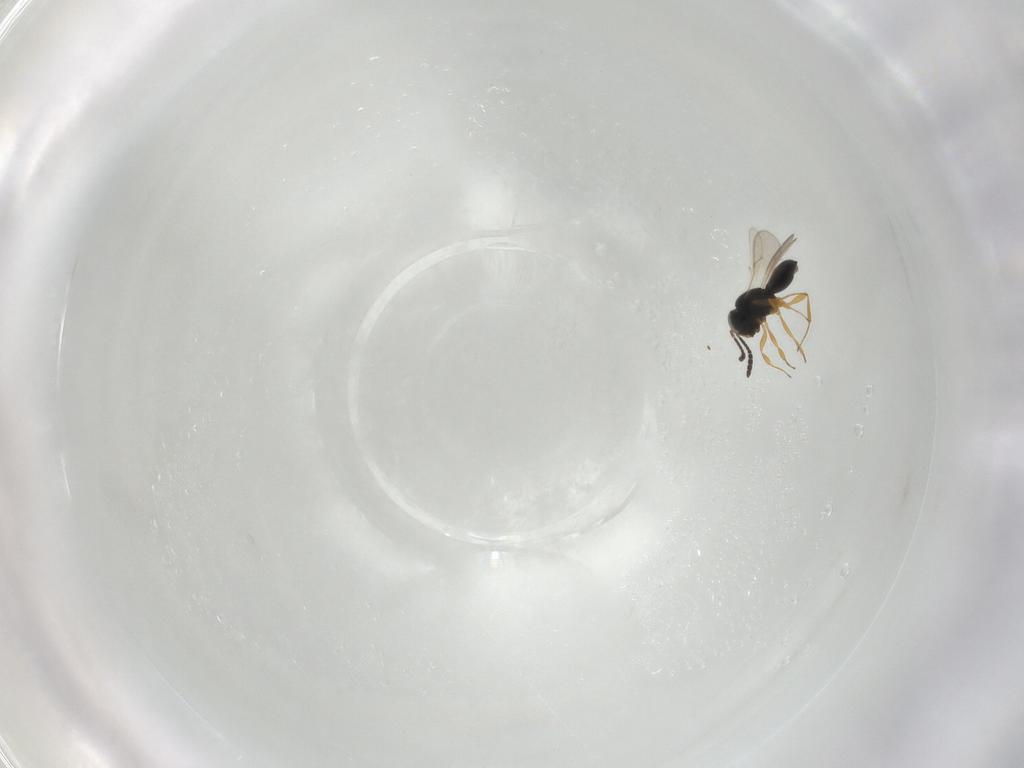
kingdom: Animalia
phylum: Arthropoda
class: Insecta
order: Hymenoptera
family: Scelionidae
